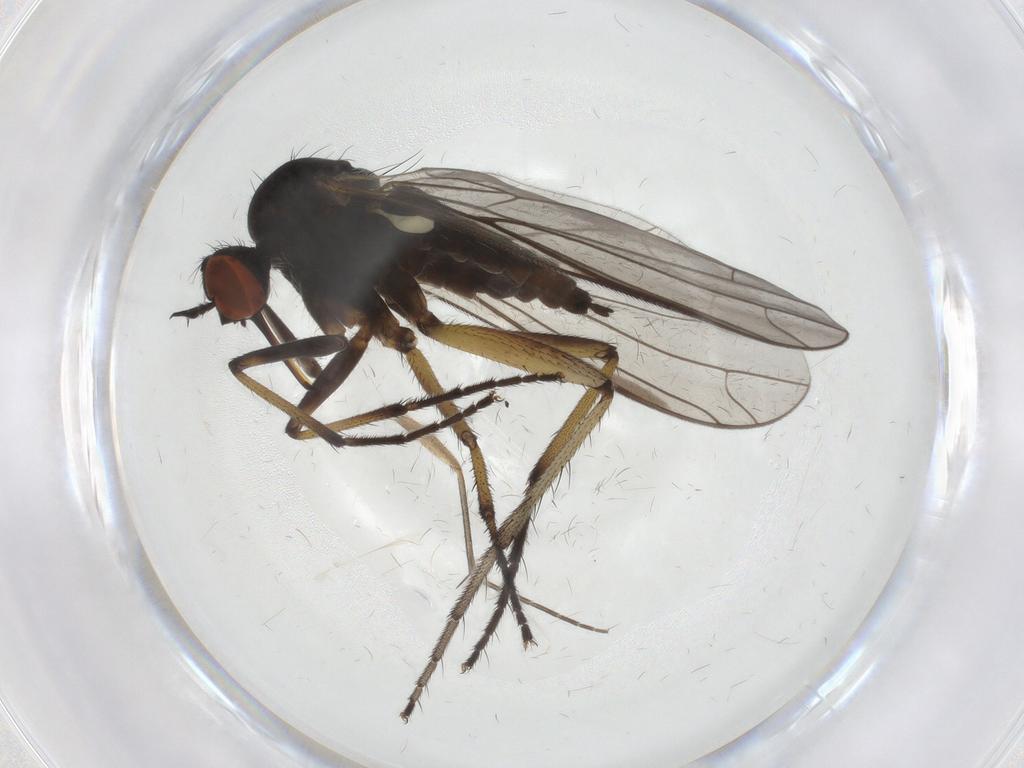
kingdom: Animalia
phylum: Arthropoda
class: Insecta
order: Diptera
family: Empididae
